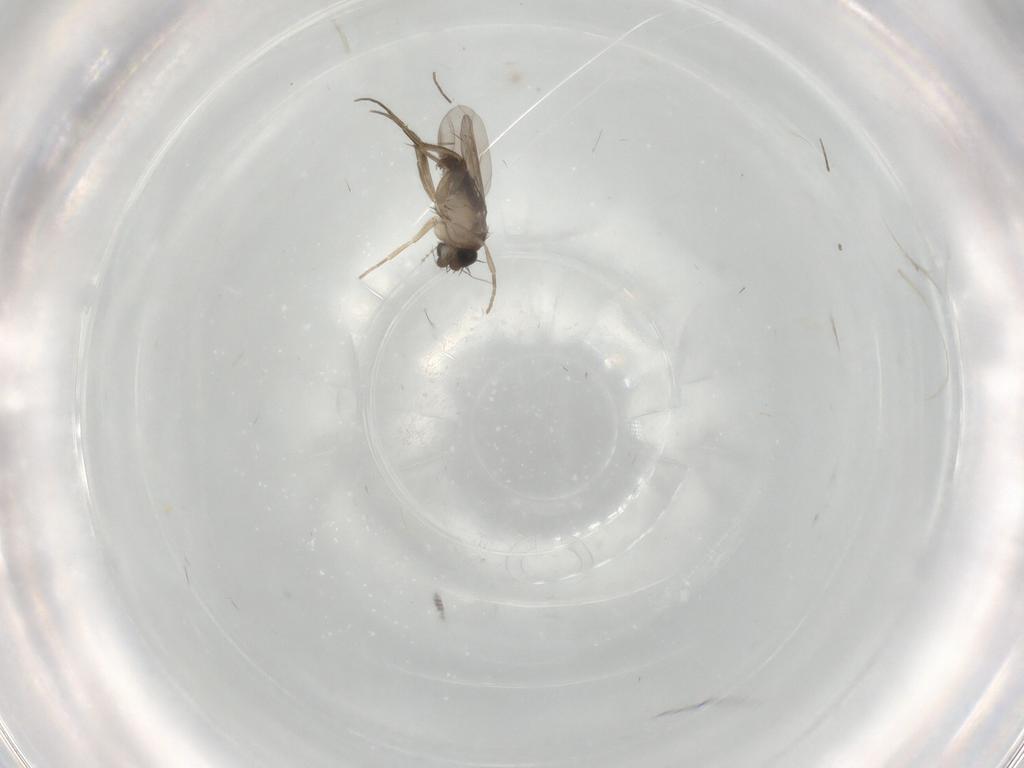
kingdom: Animalia
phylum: Arthropoda
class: Insecta
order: Diptera
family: Phoridae
